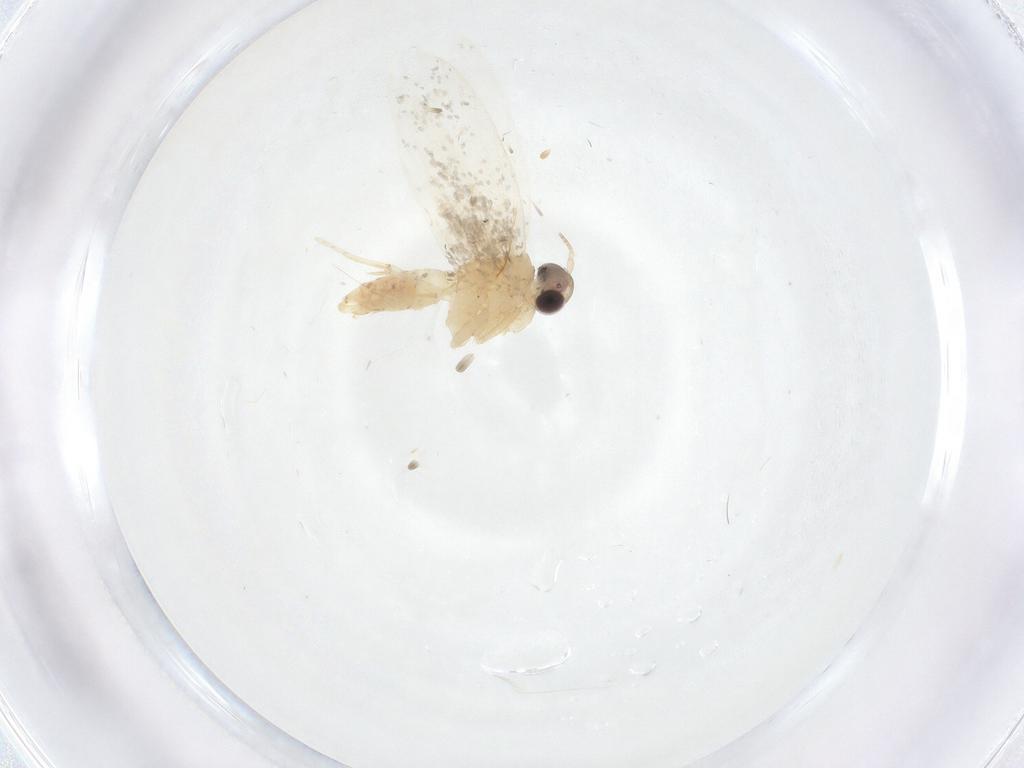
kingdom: Animalia
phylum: Arthropoda
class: Insecta
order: Lepidoptera
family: Psychidae
